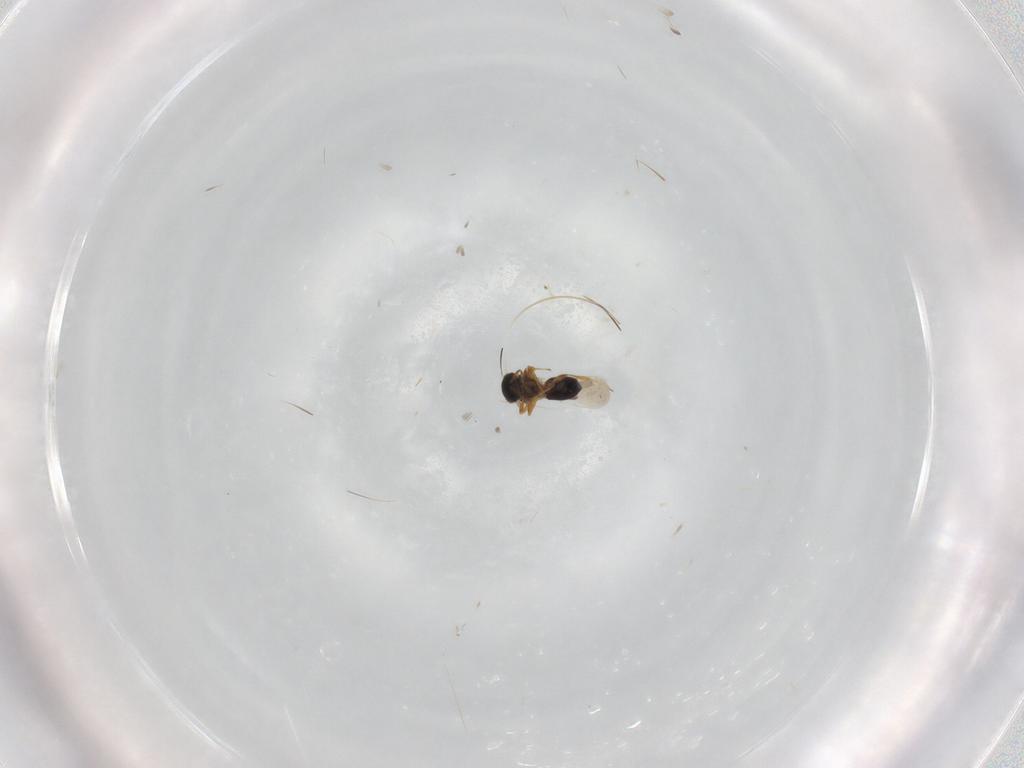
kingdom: Animalia
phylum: Arthropoda
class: Insecta
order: Hymenoptera
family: Platygastridae
